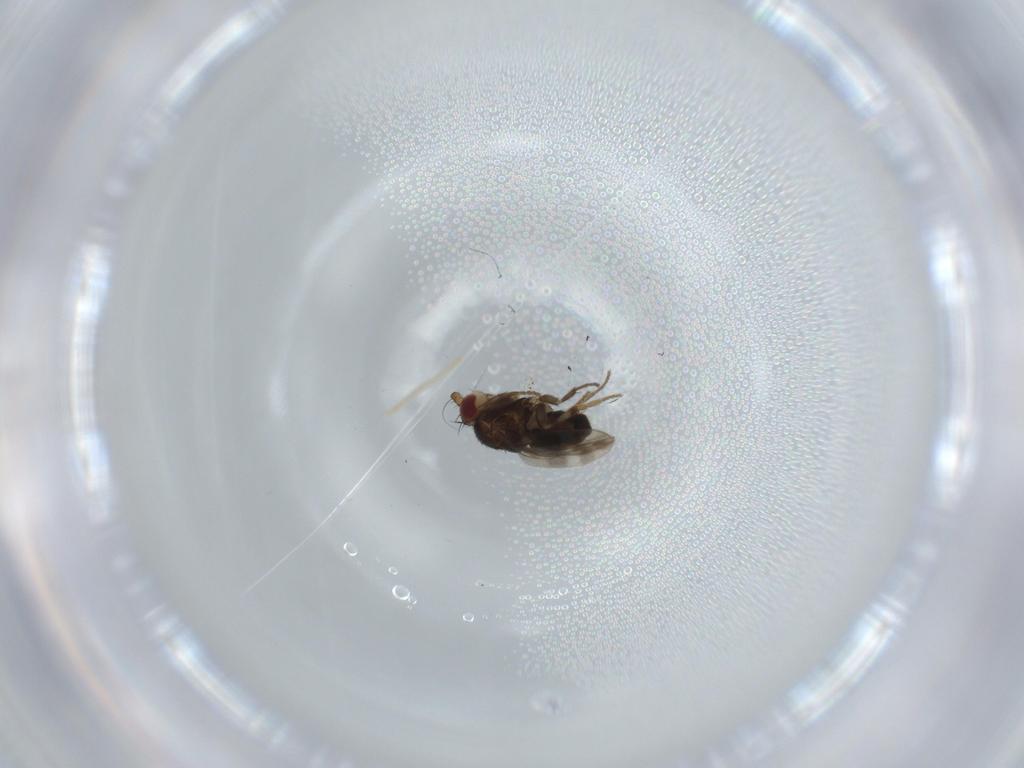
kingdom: Animalia
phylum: Arthropoda
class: Insecta
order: Diptera
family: Sphaeroceridae
